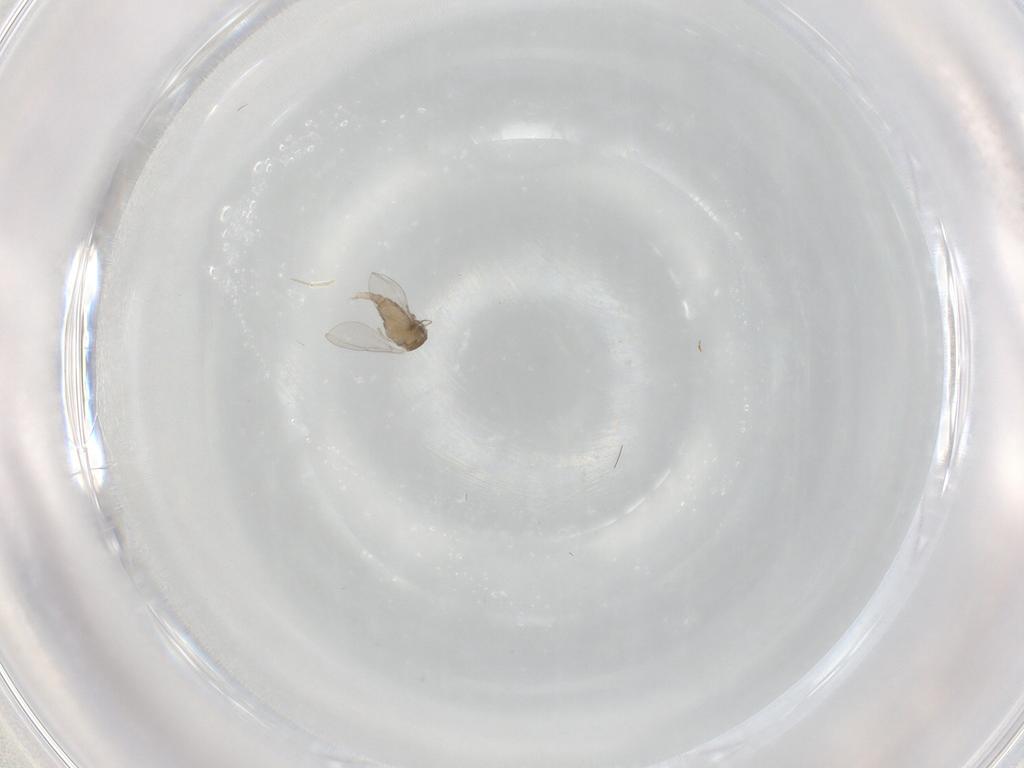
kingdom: Animalia
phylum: Arthropoda
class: Insecta
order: Diptera
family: Cecidomyiidae
